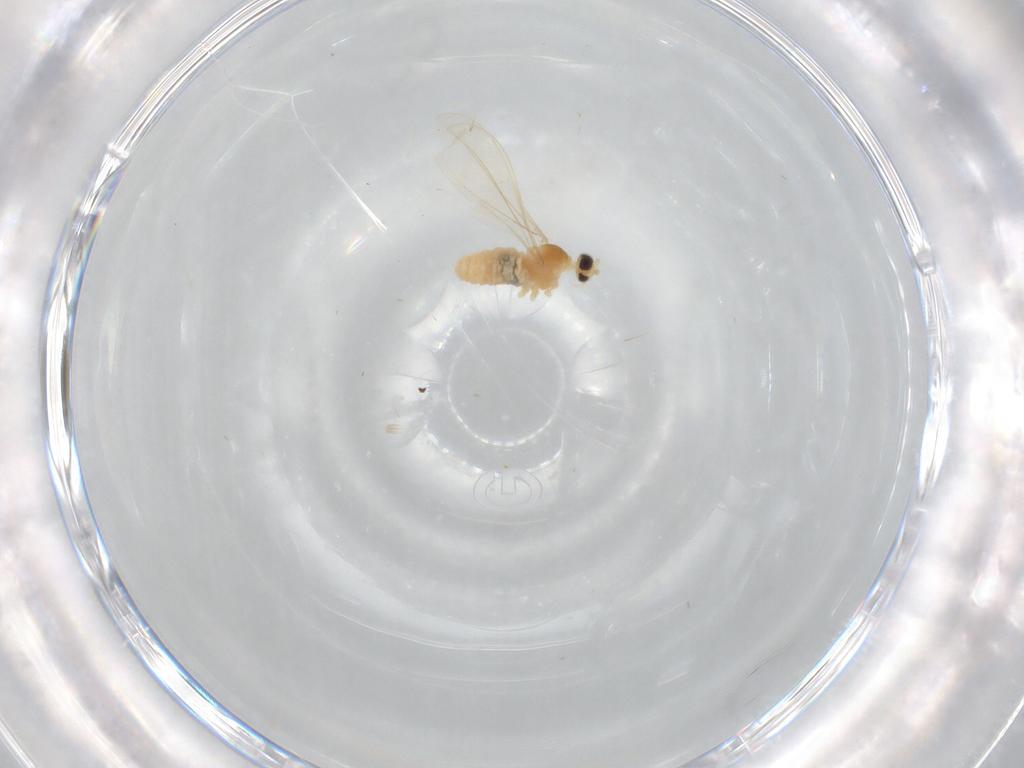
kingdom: Animalia
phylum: Arthropoda
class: Insecta
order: Diptera
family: Cecidomyiidae
